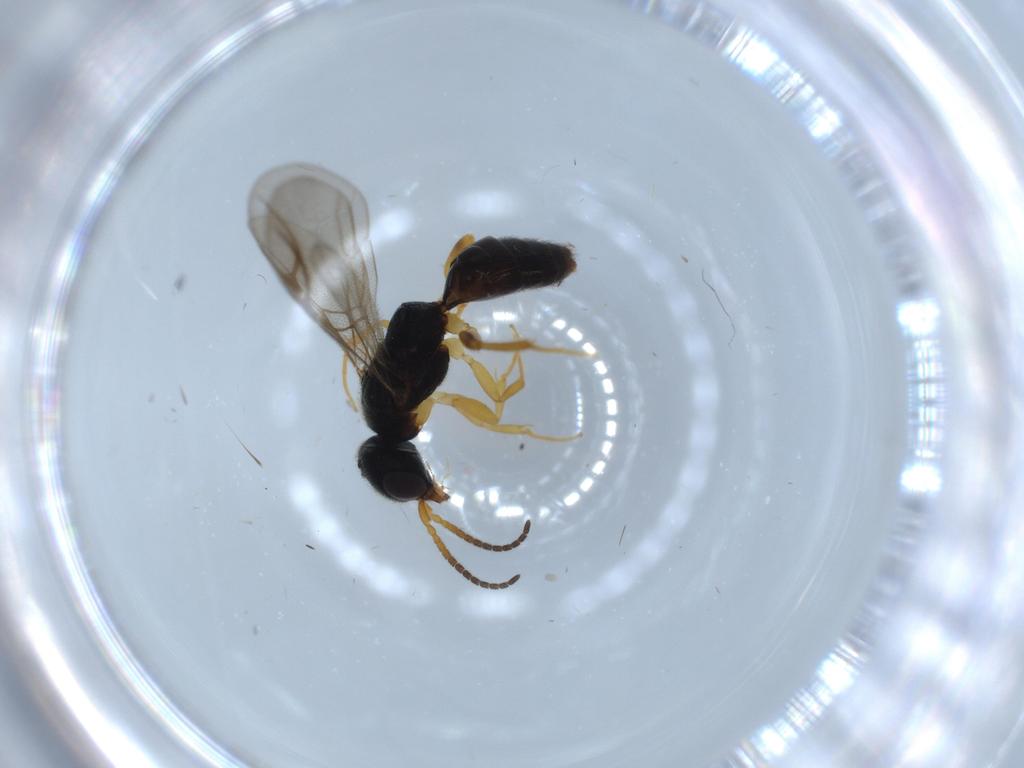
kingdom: Animalia
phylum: Arthropoda
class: Insecta
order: Hymenoptera
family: Bethylidae
